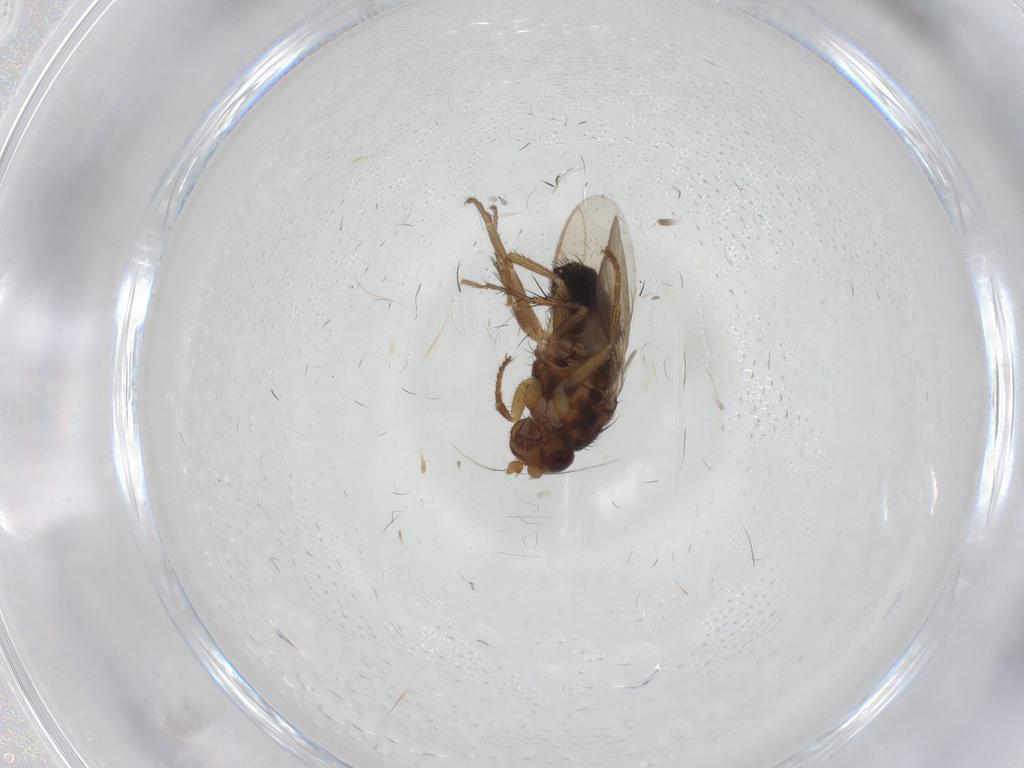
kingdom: Animalia
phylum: Arthropoda
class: Insecta
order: Diptera
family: Sphaeroceridae
